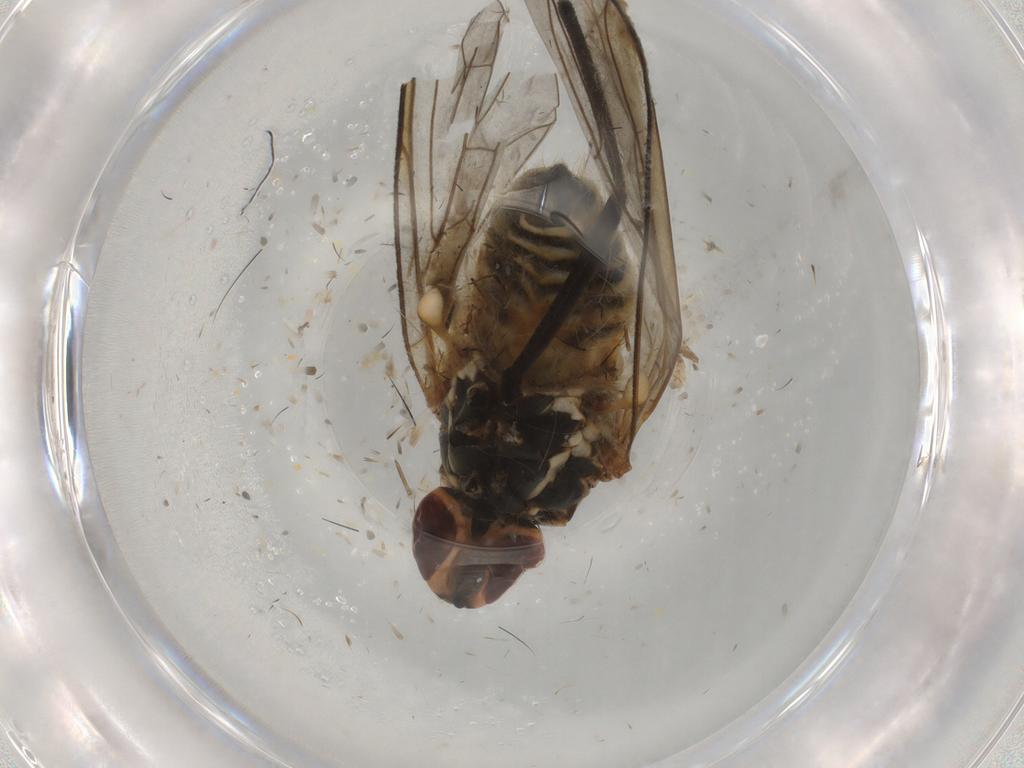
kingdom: Animalia
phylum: Arthropoda
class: Insecta
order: Diptera
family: Bombyliidae
